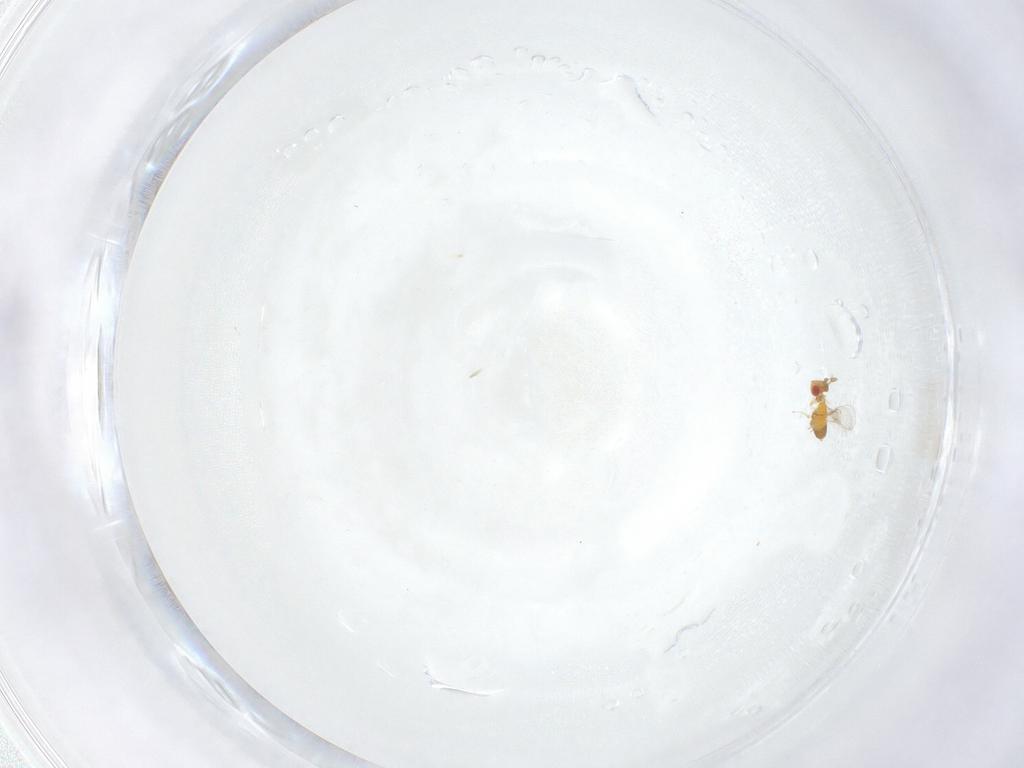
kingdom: Animalia
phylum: Arthropoda
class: Insecta
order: Hymenoptera
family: Trichogrammatidae
